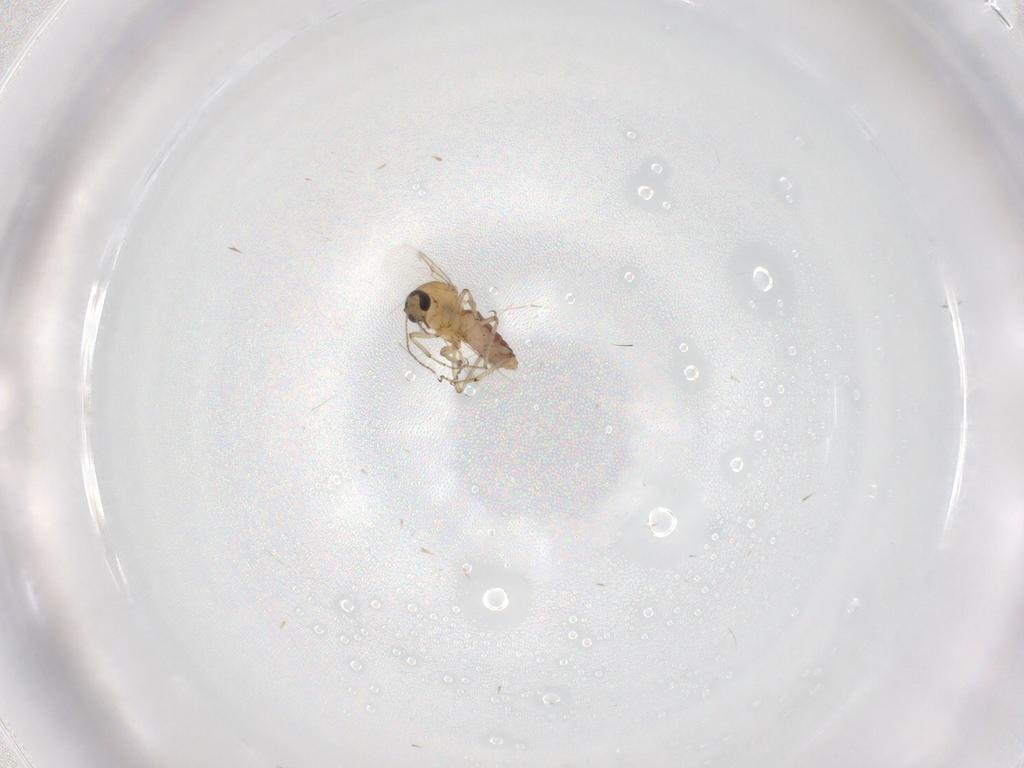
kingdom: Animalia
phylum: Arthropoda
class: Insecta
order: Diptera
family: Ceratopogonidae
